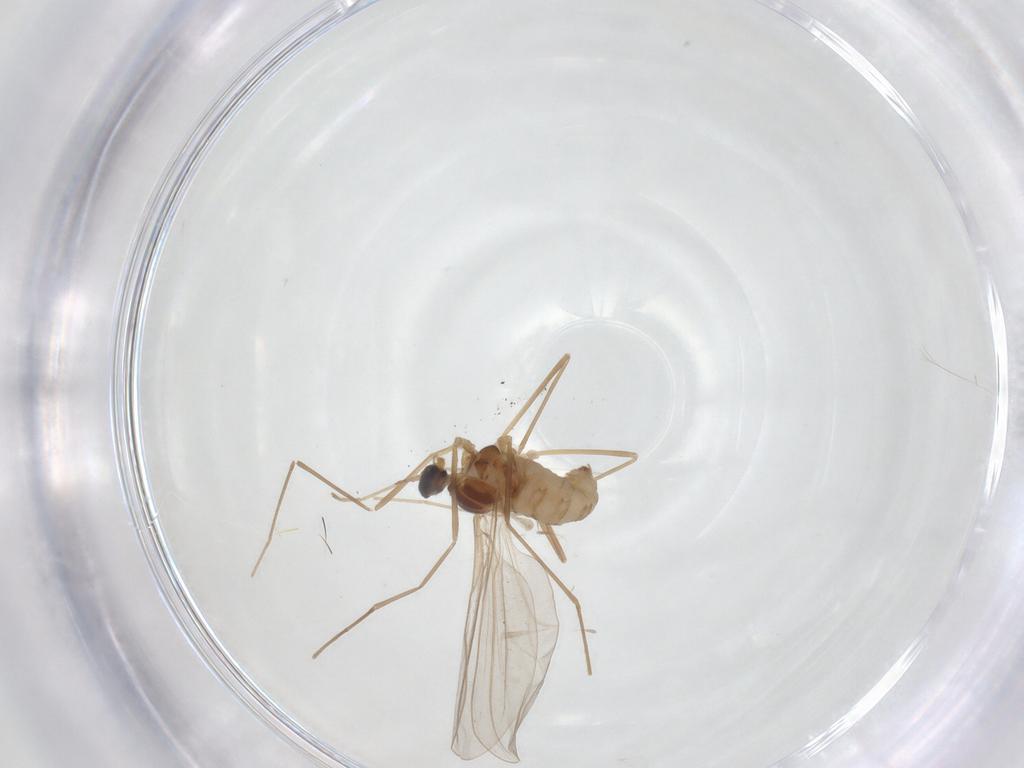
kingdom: Animalia
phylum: Arthropoda
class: Insecta
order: Diptera
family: Cecidomyiidae
